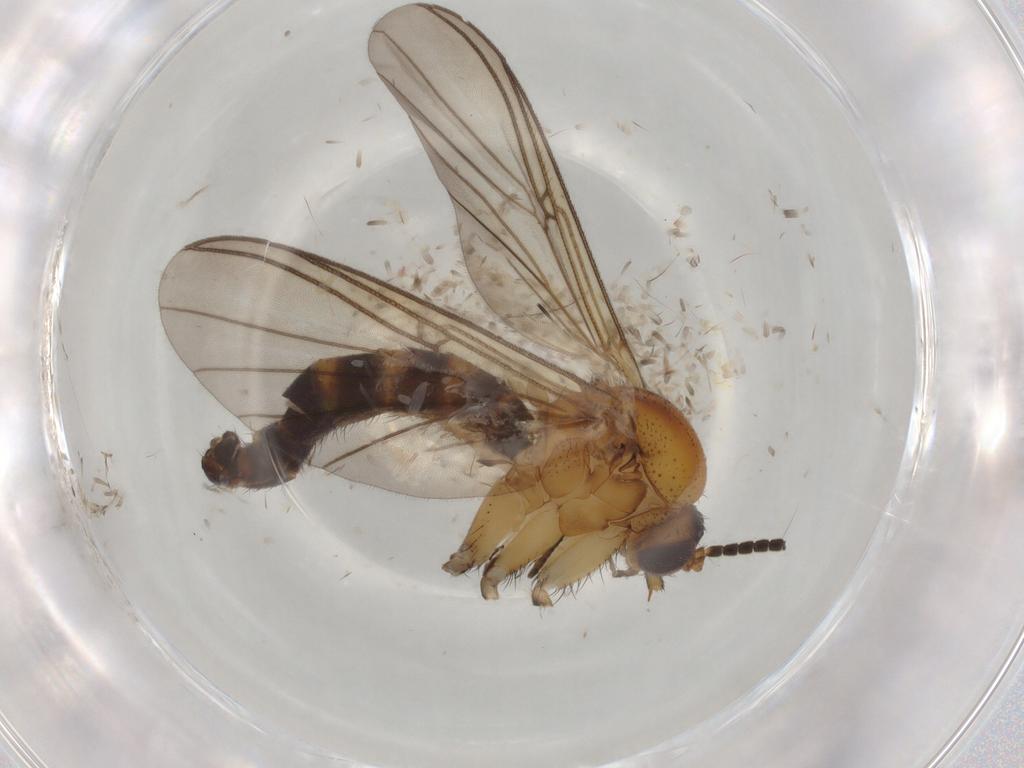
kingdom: Animalia
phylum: Arthropoda
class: Insecta
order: Diptera
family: Mycetophilidae
